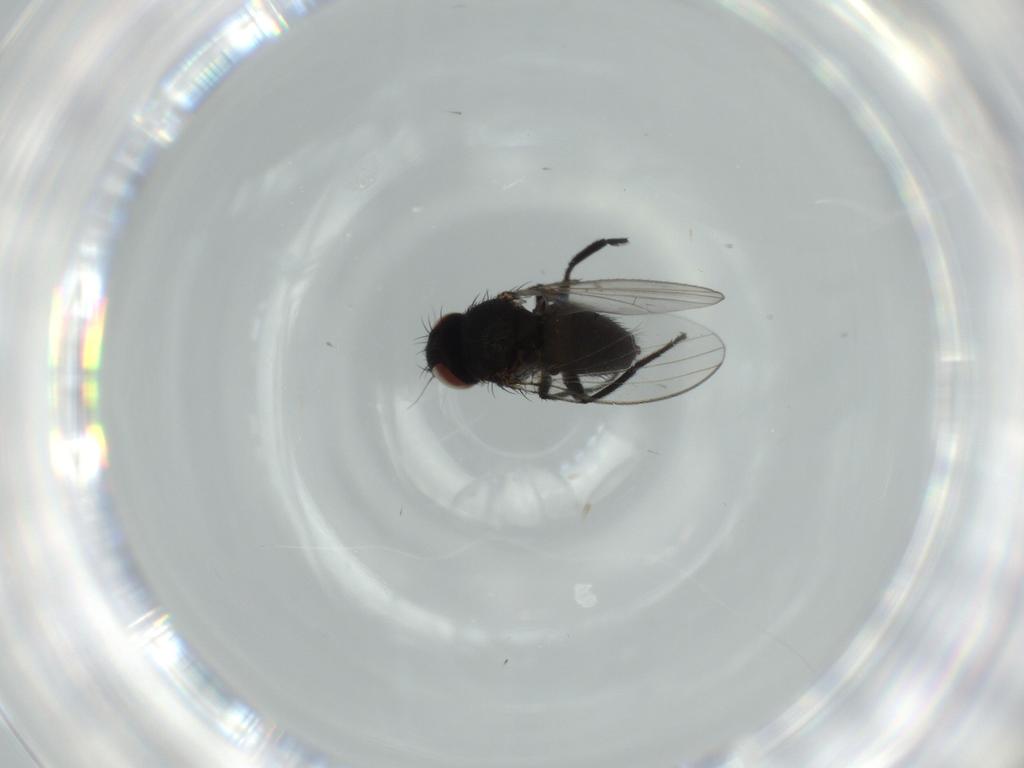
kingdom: Animalia
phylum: Arthropoda
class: Insecta
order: Diptera
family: Milichiidae
